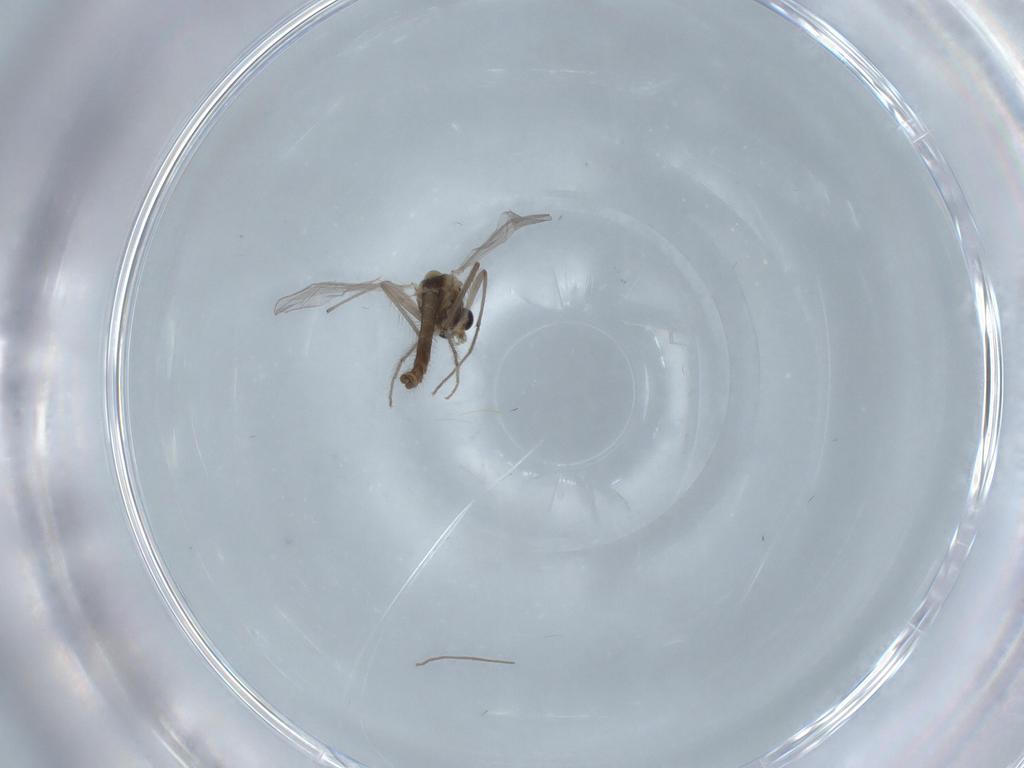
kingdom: Animalia
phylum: Arthropoda
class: Insecta
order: Diptera
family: Chironomidae
